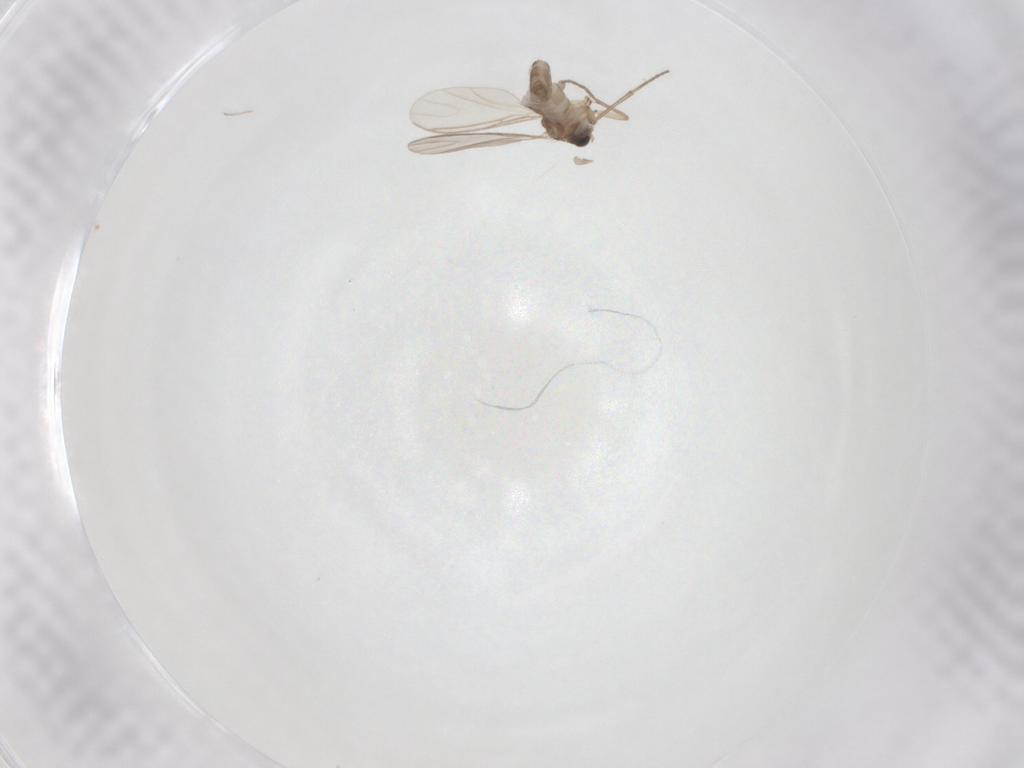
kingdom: Animalia
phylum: Arthropoda
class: Insecta
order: Diptera
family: Sciaridae
